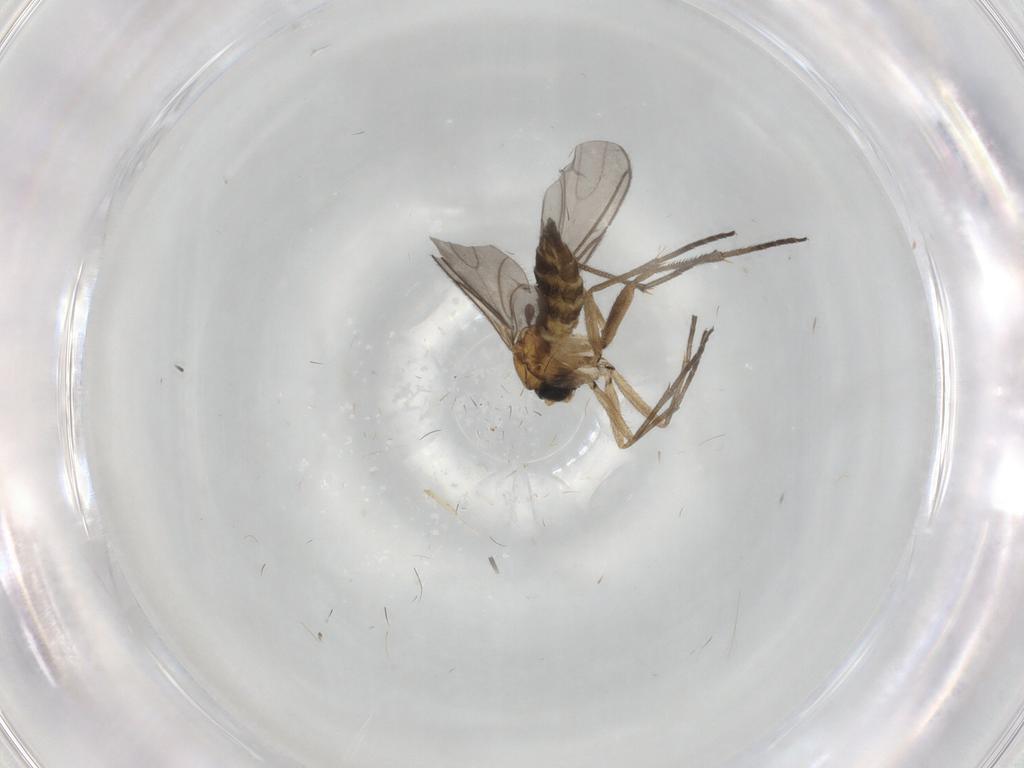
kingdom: Animalia
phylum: Arthropoda
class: Insecta
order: Diptera
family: Sciaridae
